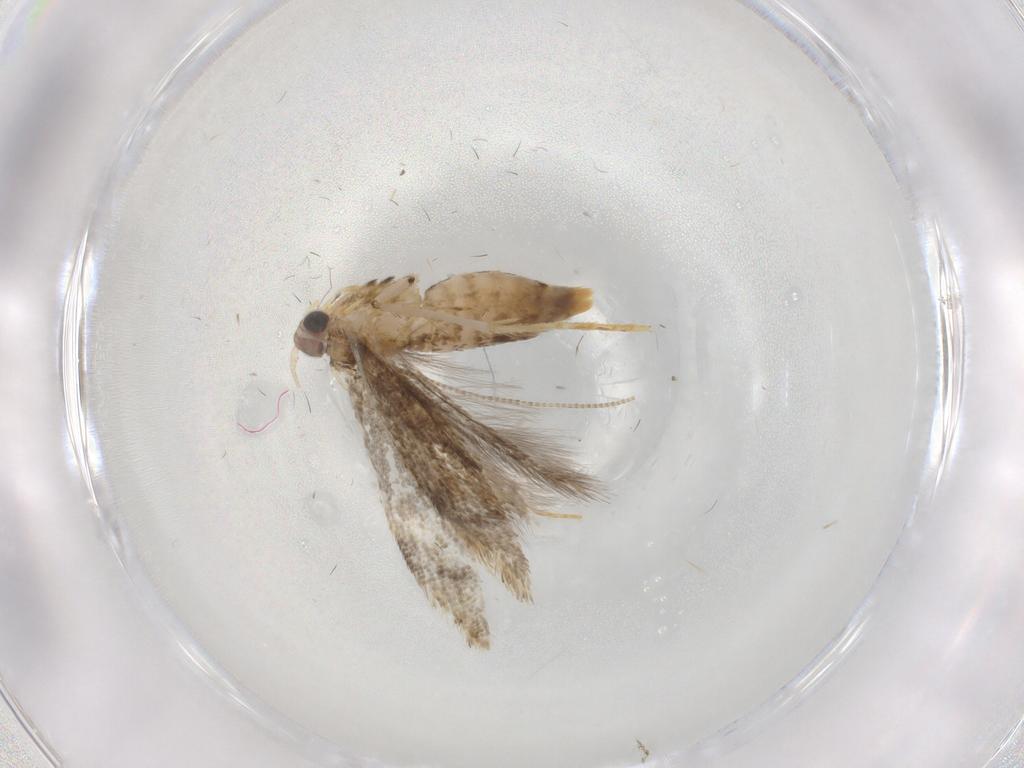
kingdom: Animalia
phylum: Arthropoda
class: Insecta
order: Lepidoptera
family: Tineidae
